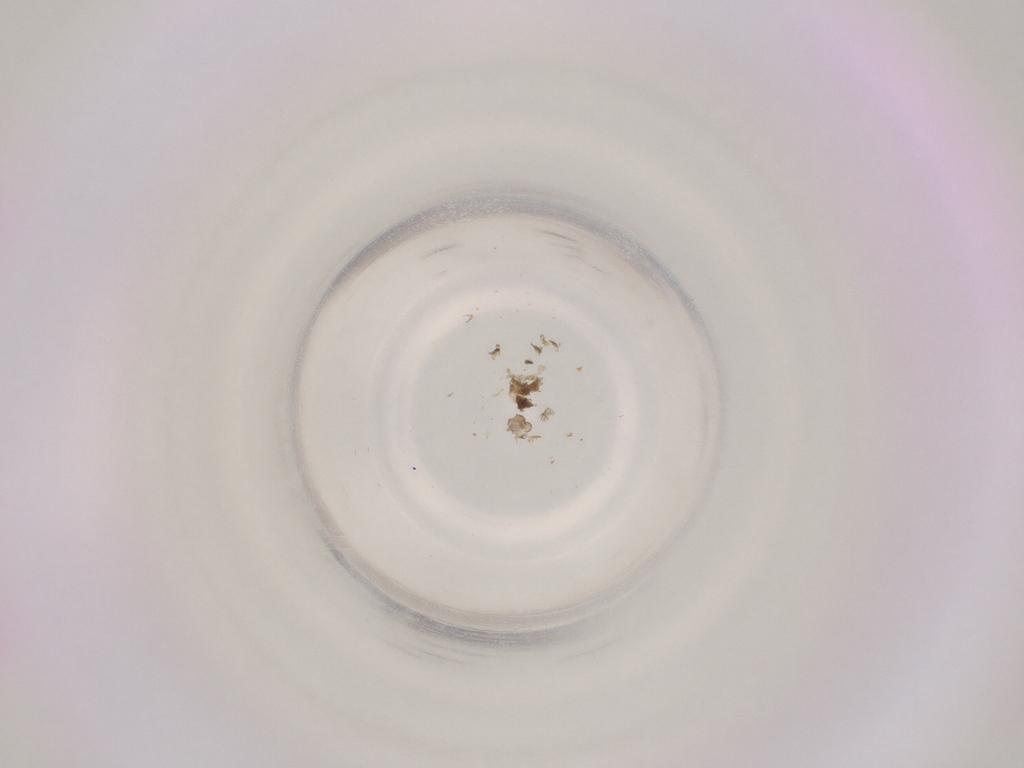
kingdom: Animalia
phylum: Arthropoda
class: Insecta
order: Diptera
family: Cecidomyiidae
